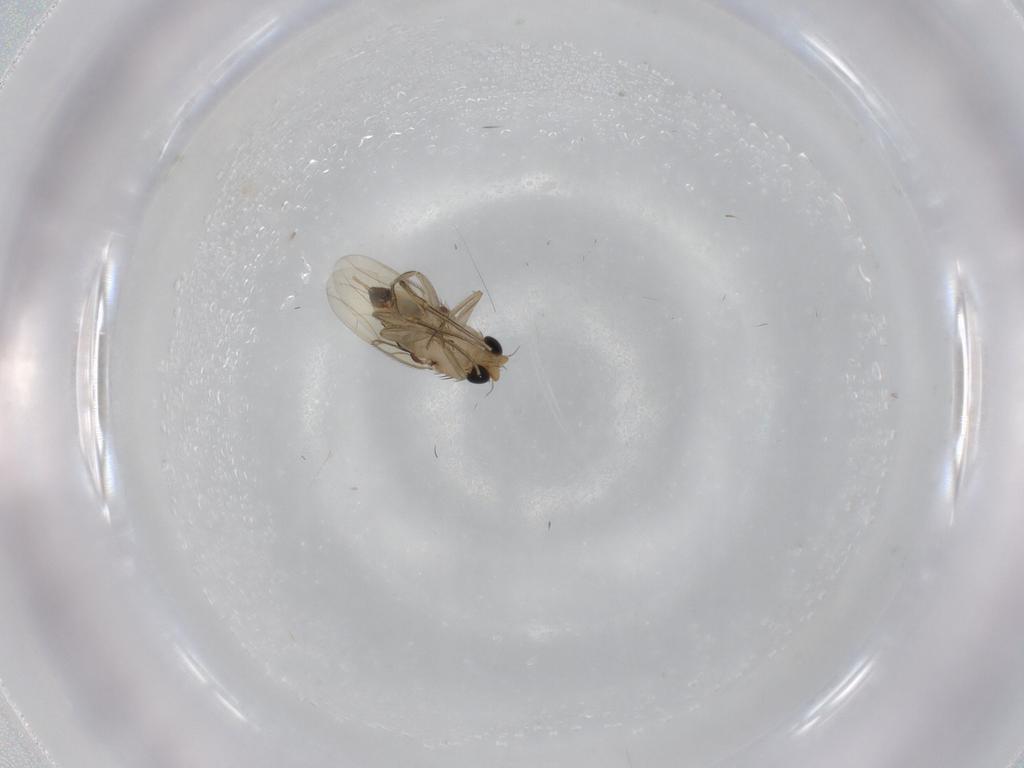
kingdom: Animalia
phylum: Arthropoda
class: Insecta
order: Diptera
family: Phoridae
